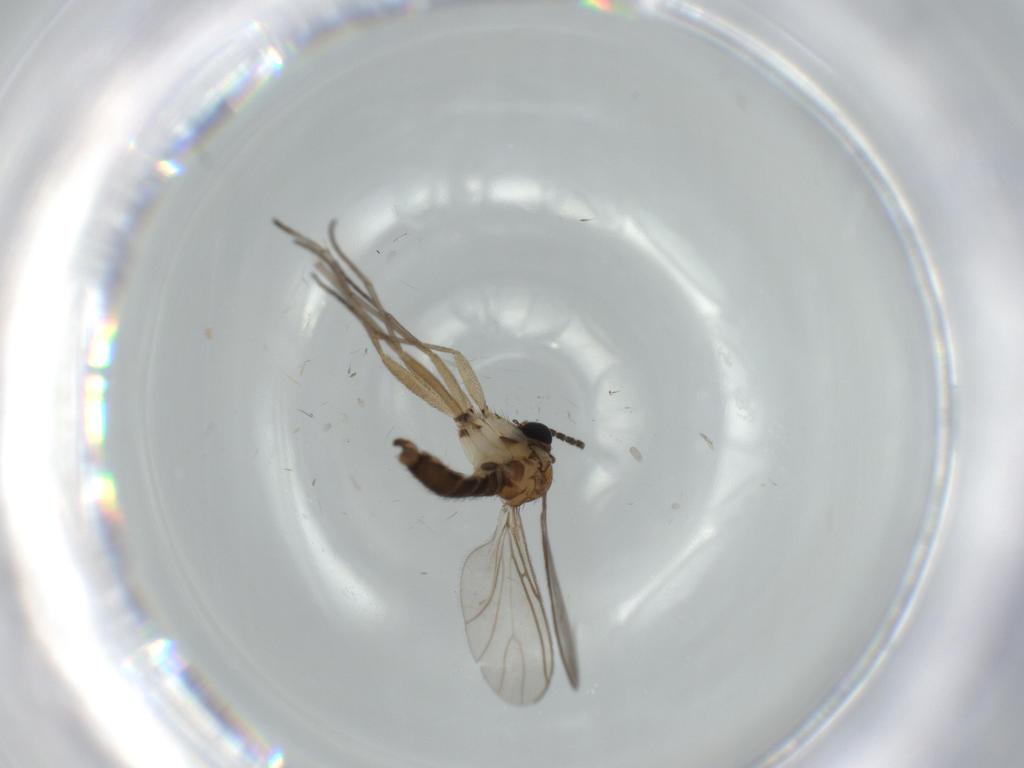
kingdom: Animalia
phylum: Arthropoda
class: Insecta
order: Diptera
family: Sciaridae
